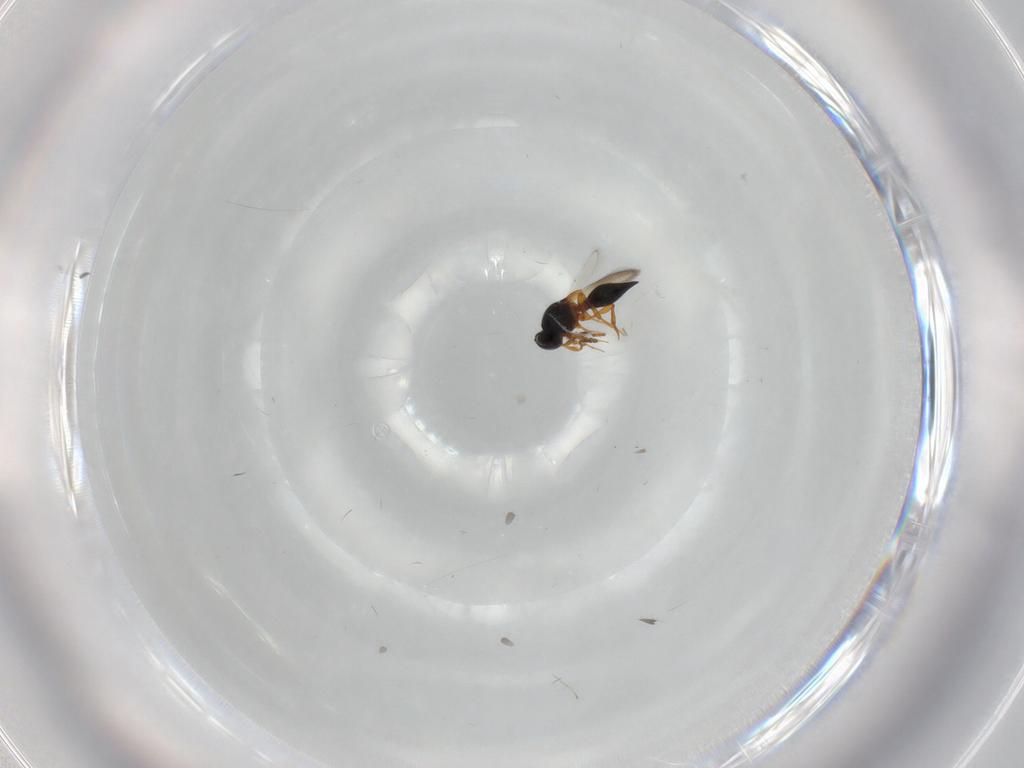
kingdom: Animalia
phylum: Arthropoda
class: Insecta
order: Hymenoptera
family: Platygastridae
